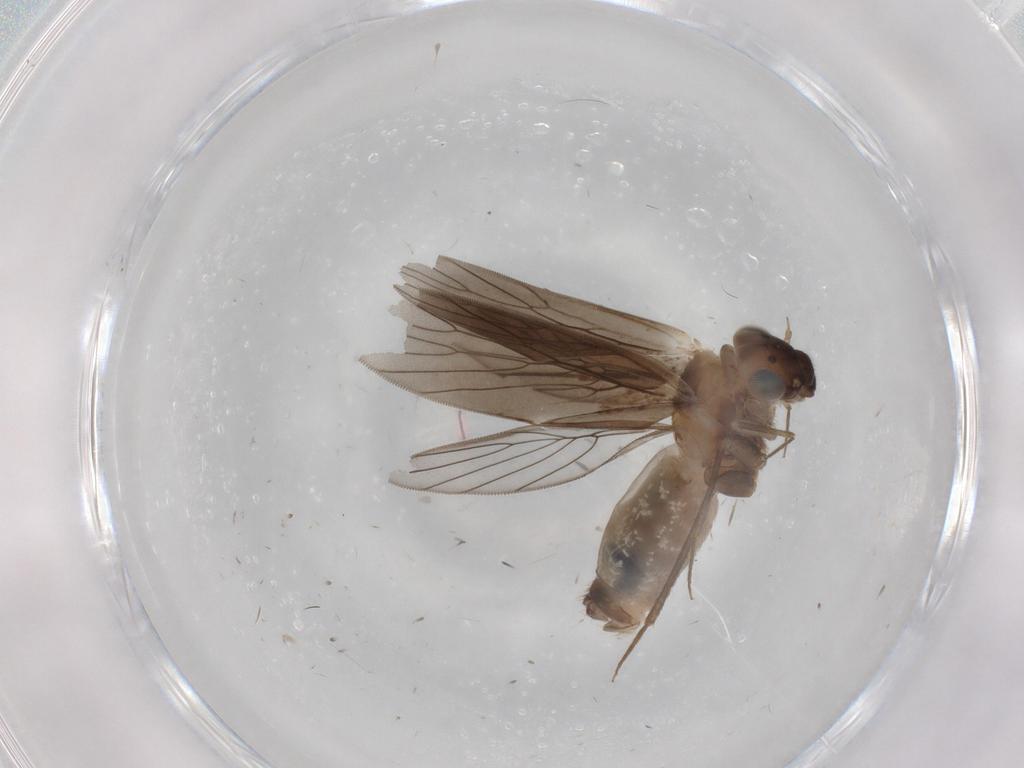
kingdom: Animalia
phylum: Arthropoda
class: Insecta
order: Psocodea
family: Lepidopsocidae
